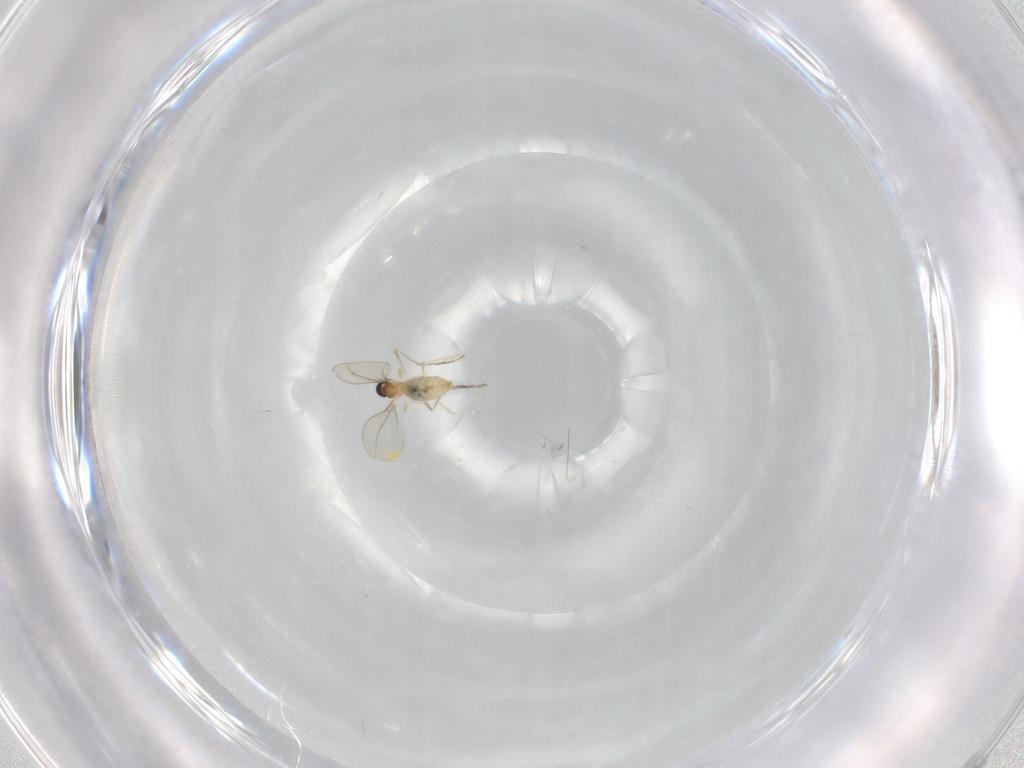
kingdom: Animalia
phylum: Arthropoda
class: Insecta
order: Diptera
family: Cecidomyiidae
